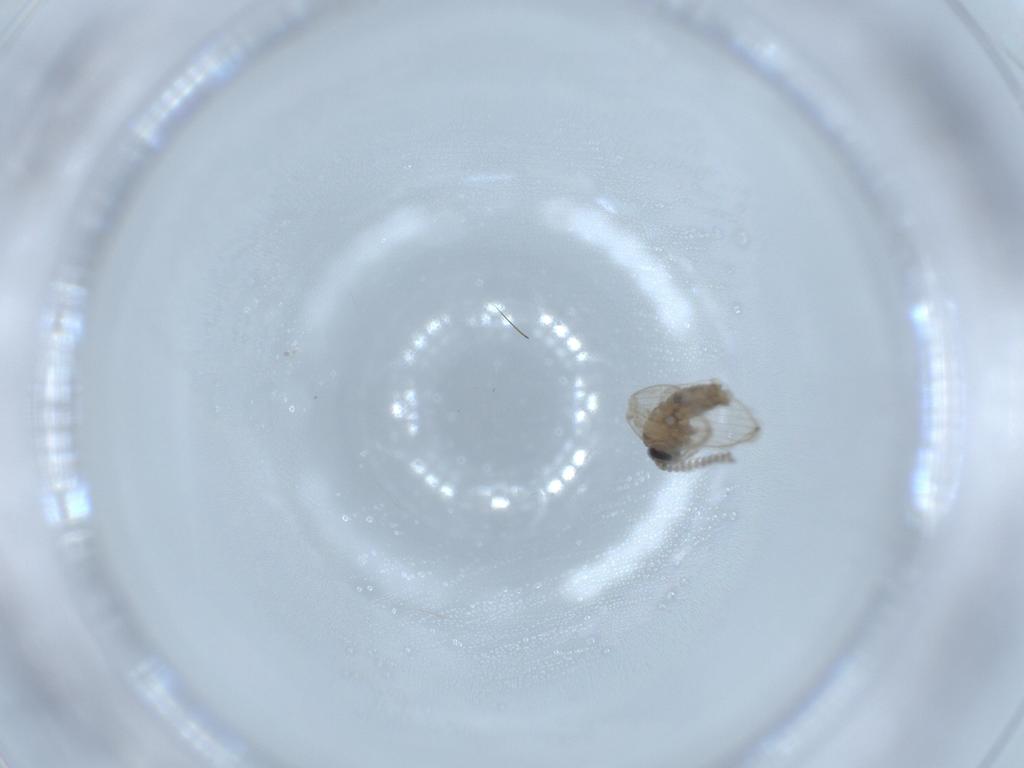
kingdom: Animalia
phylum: Arthropoda
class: Insecta
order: Diptera
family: Psychodidae
